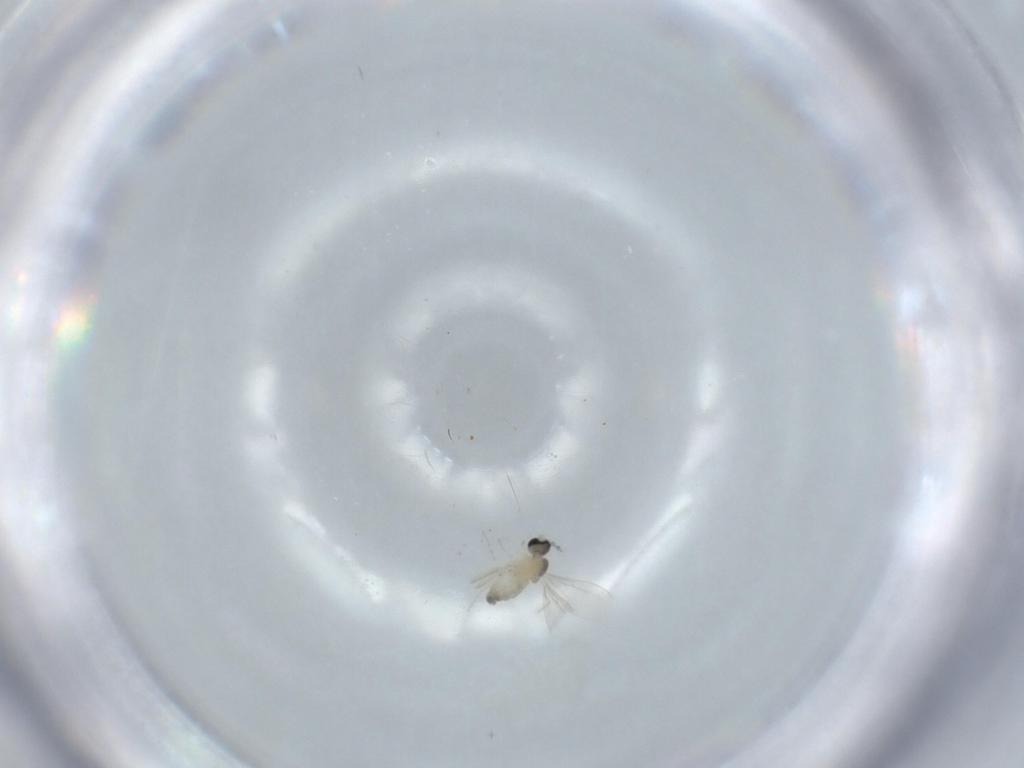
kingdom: Animalia
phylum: Arthropoda
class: Insecta
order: Diptera
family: Cecidomyiidae
